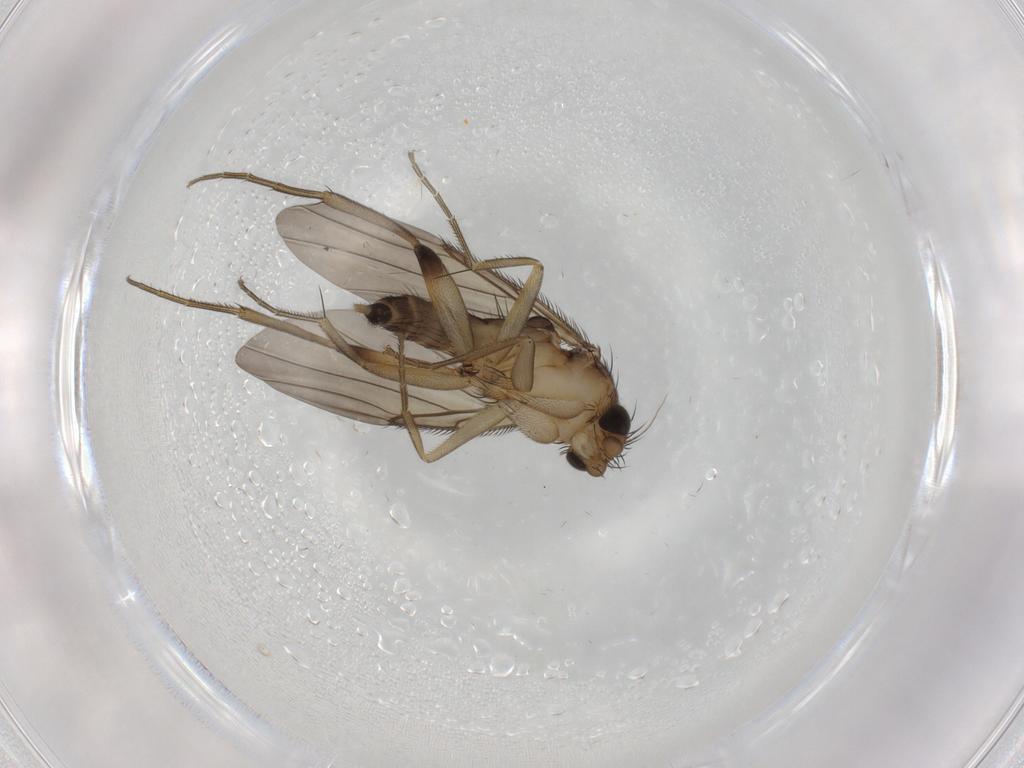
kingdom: Animalia
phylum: Arthropoda
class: Insecta
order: Diptera
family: Phoridae
